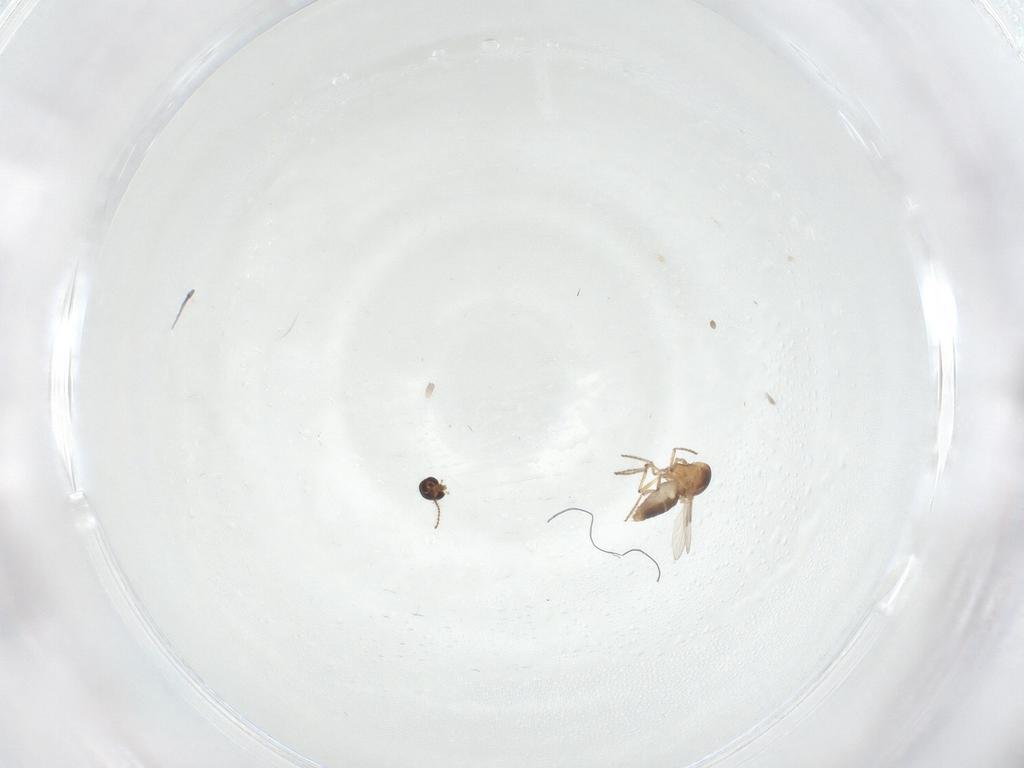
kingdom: Animalia
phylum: Arthropoda
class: Insecta
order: Diptera
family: Ceratopogonidae
